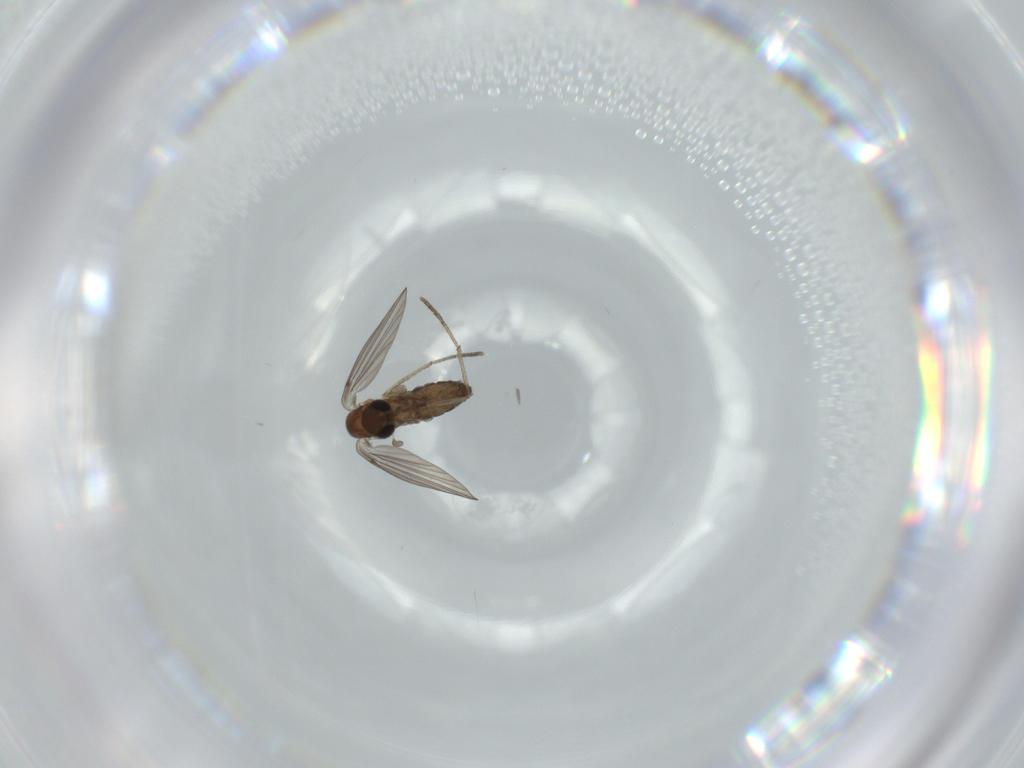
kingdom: Animalia
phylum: Arthropoda
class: Insecta
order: Diptera
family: Psychodidae
